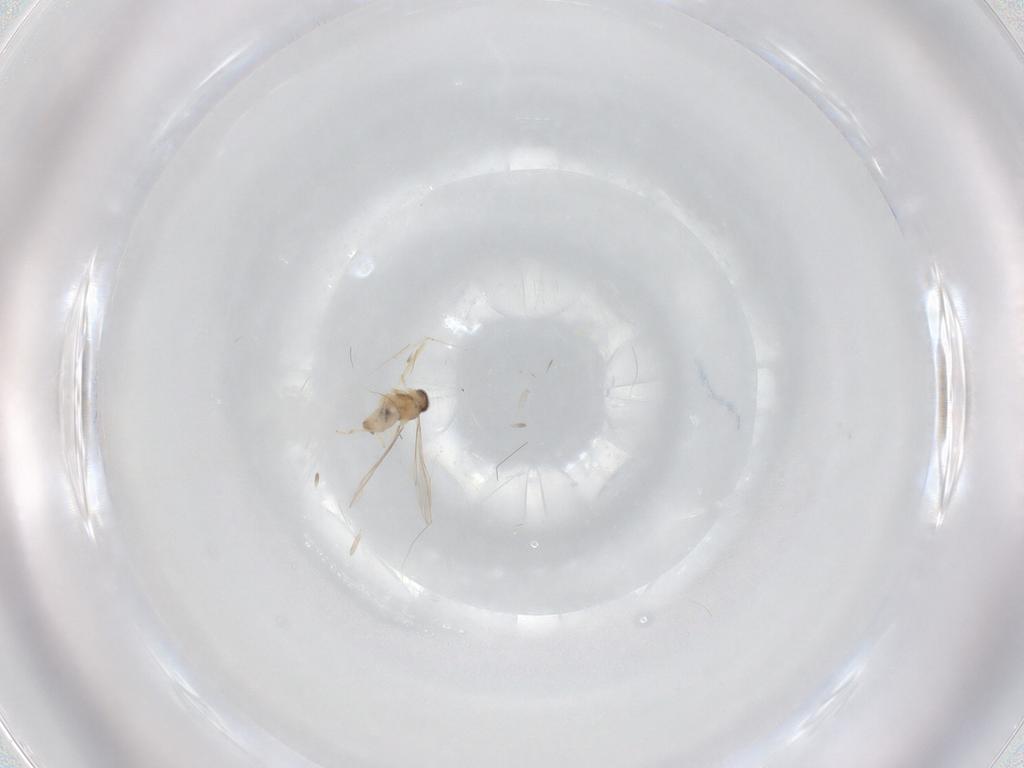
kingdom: Animalia
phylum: Arthropoda
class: Insecta
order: Diptera
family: Cecidomyiidae
